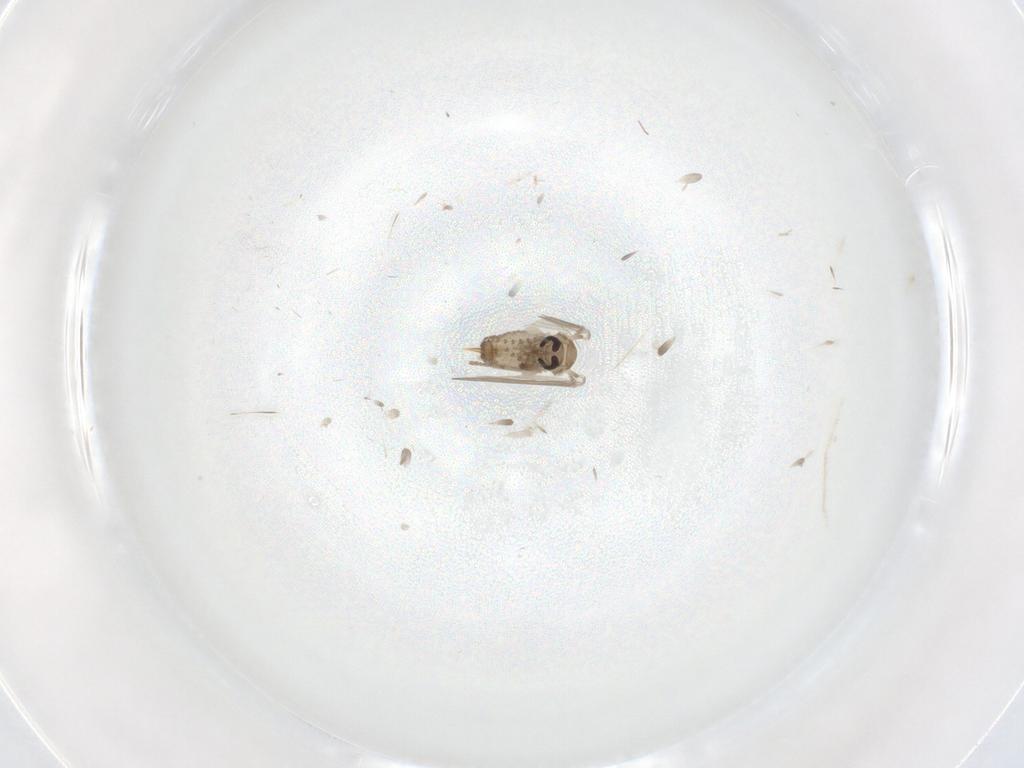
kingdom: Animalia
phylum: Arthropoda
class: Insecta
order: Diptera
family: Psychodidae
